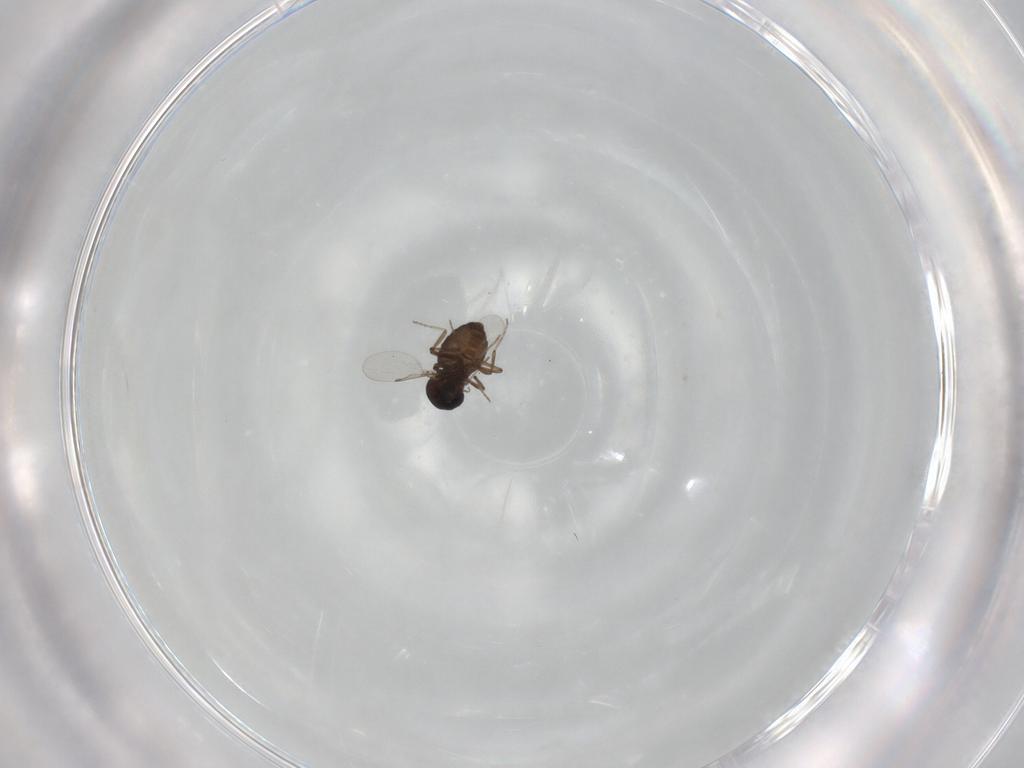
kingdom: Animalia
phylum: Arthropoda
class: Insecta
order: Diptera
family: Ceratopogonidae
